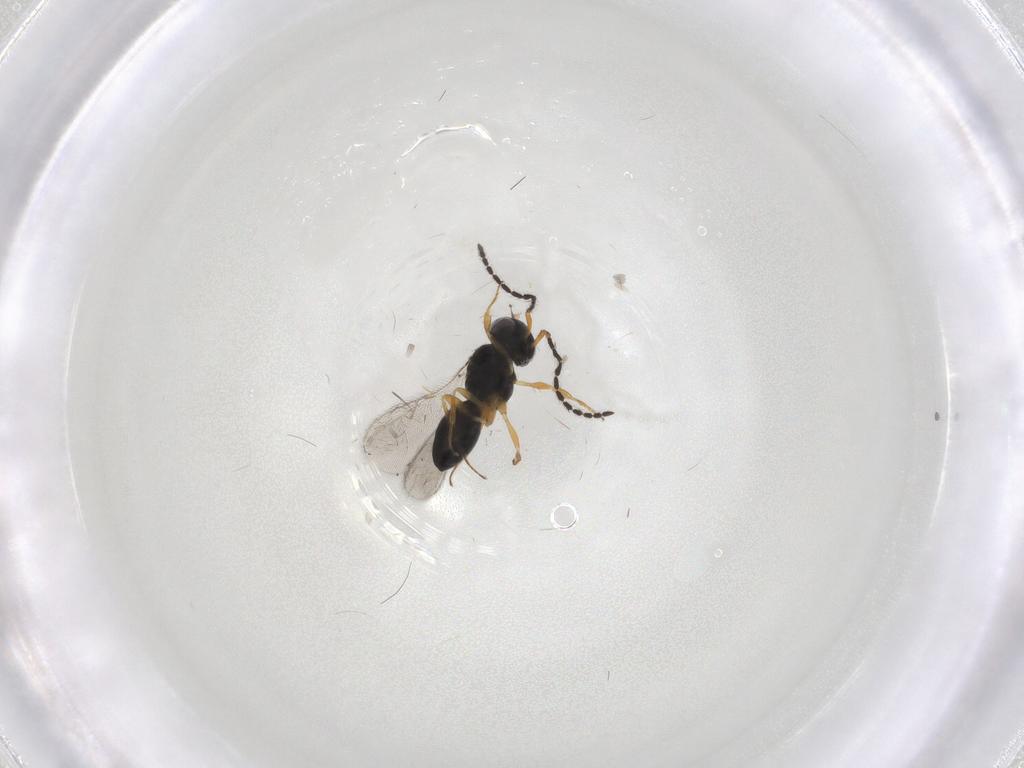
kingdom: Animalia
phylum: Arthropoda
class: Insecta
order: Hymenoptera
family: Scelionidae
